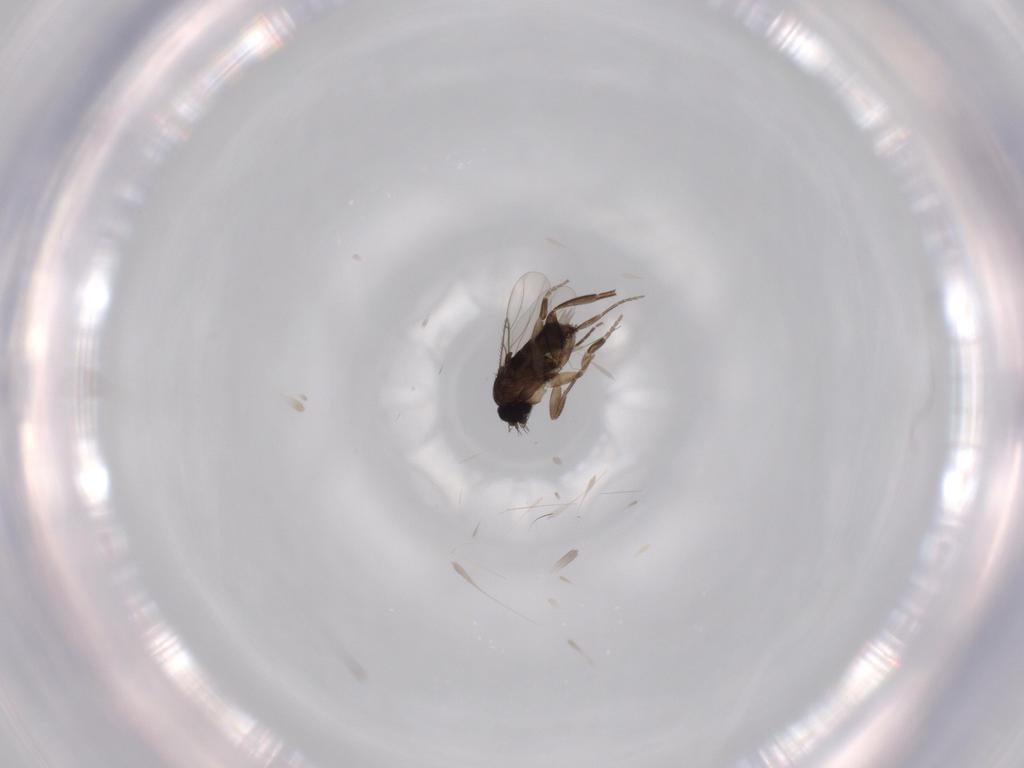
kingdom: Animalia
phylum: Arthropoda
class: Insecta
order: Diptera
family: Phoridae
